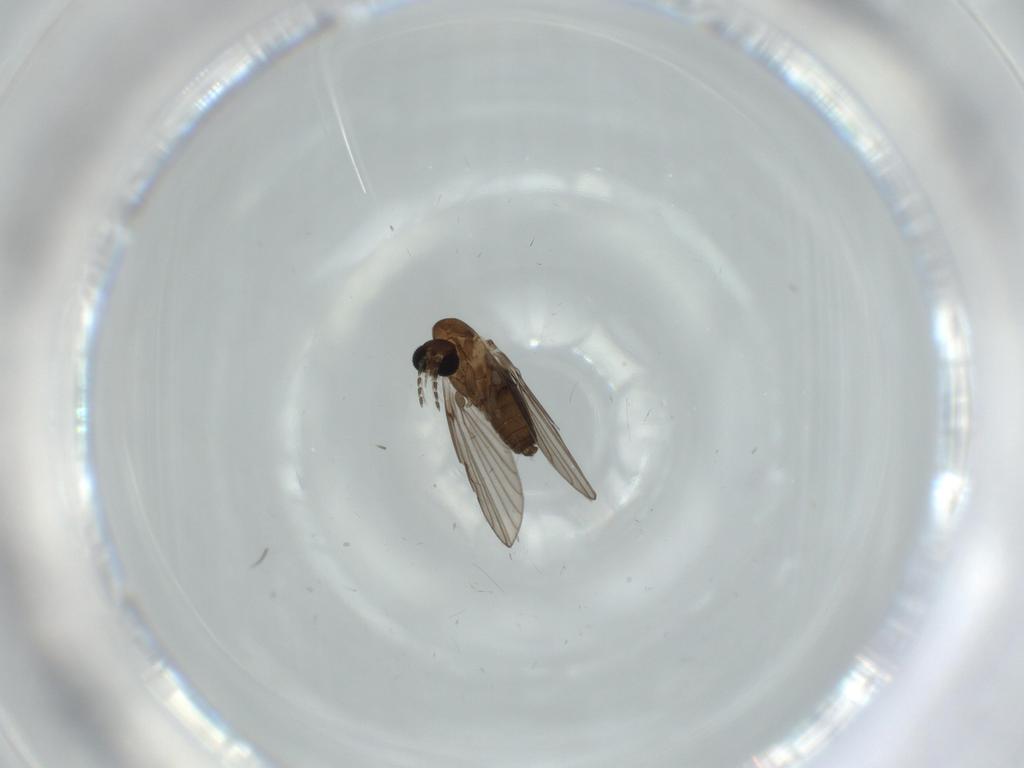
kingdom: Animalia
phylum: Arthropoda
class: Insecta
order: Diptera
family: Psychodidae
